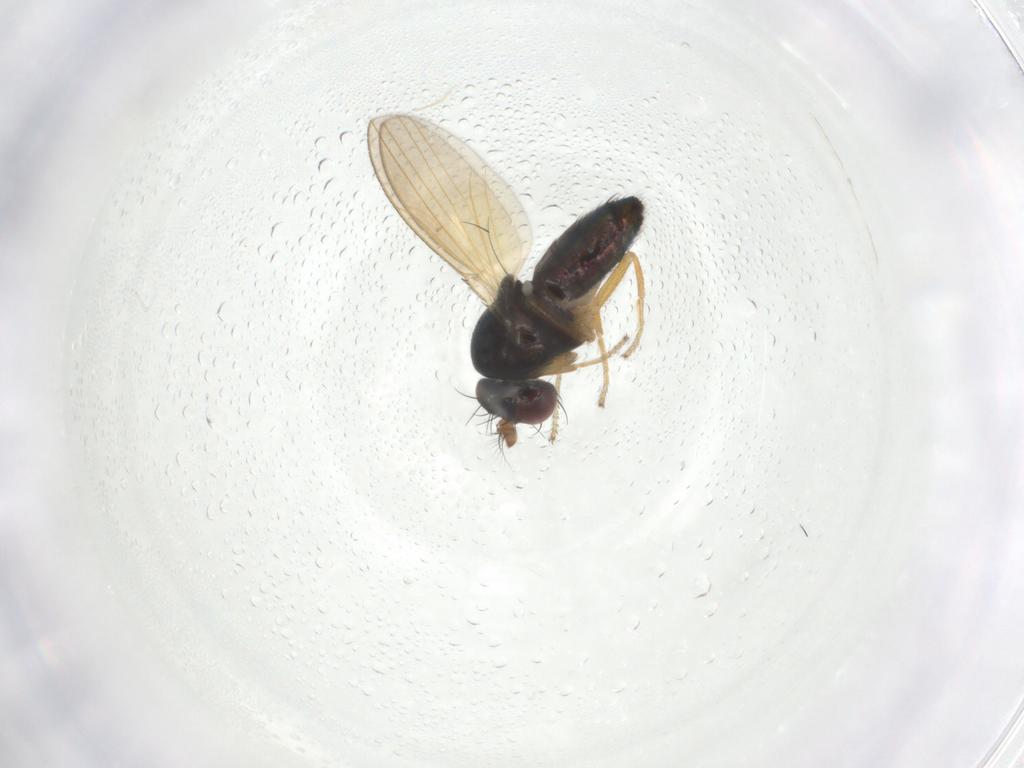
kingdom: Animalia
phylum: Arthropoda
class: Insecta
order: Diptera
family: Ephydridae
